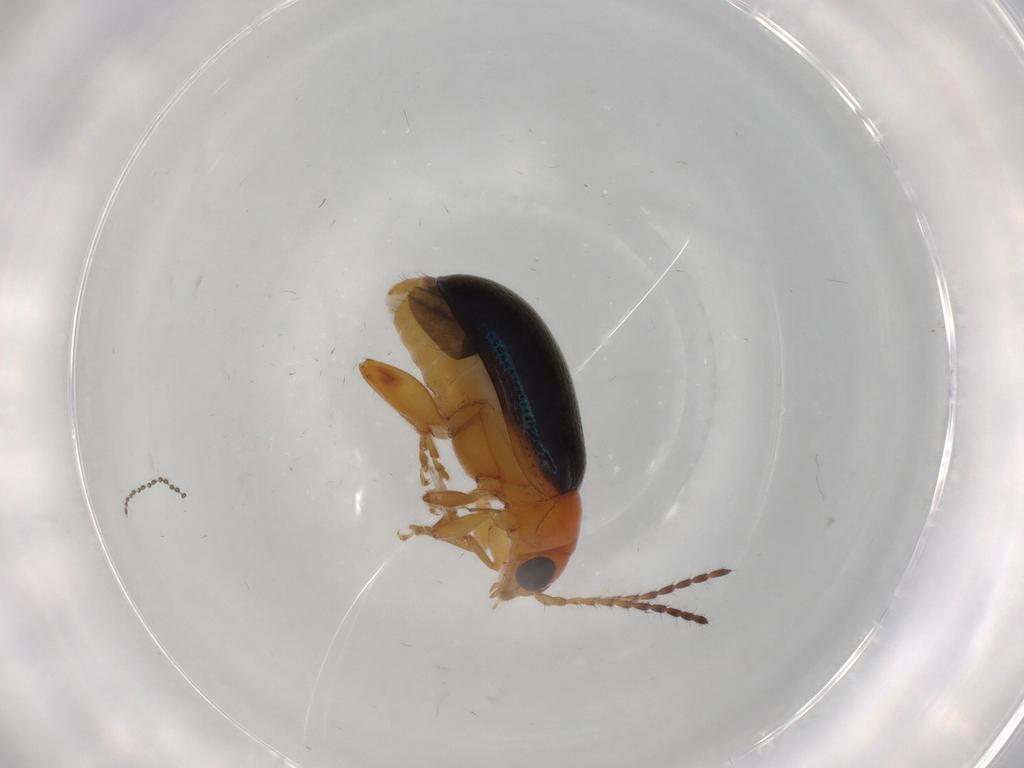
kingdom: Animalia
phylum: Arthropoda
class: Insecta
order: Coleoptera
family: Chrysomelidae
